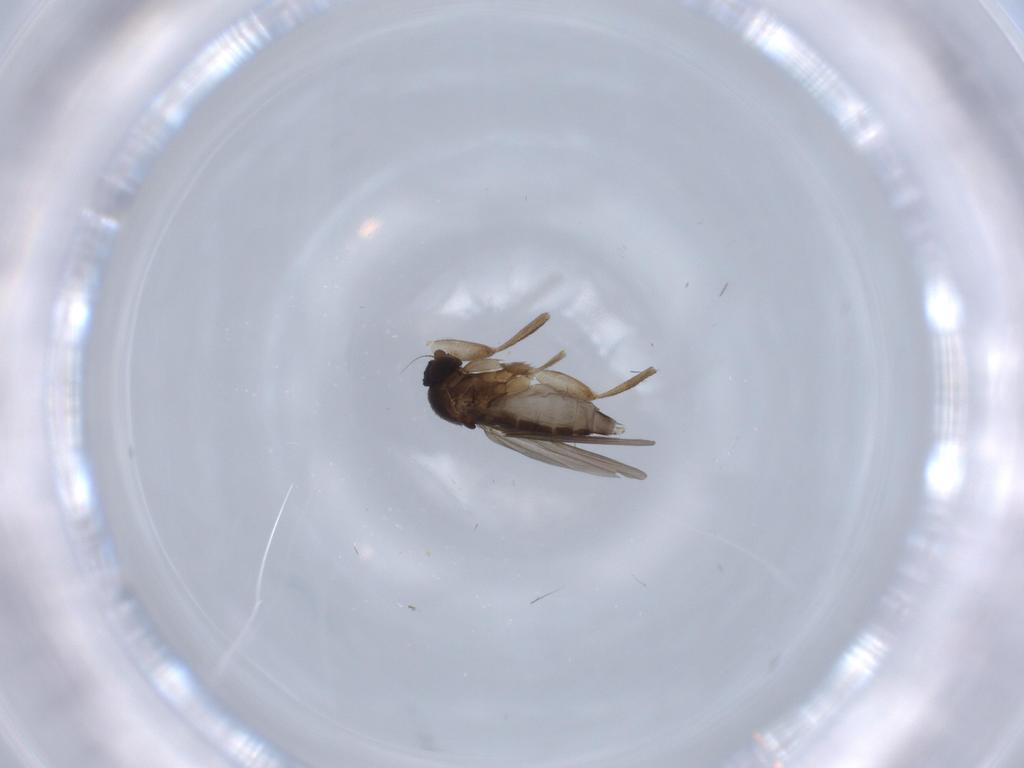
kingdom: Animalia
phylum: Arthropoda
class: Insecta
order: Diptera
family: Phoridae
